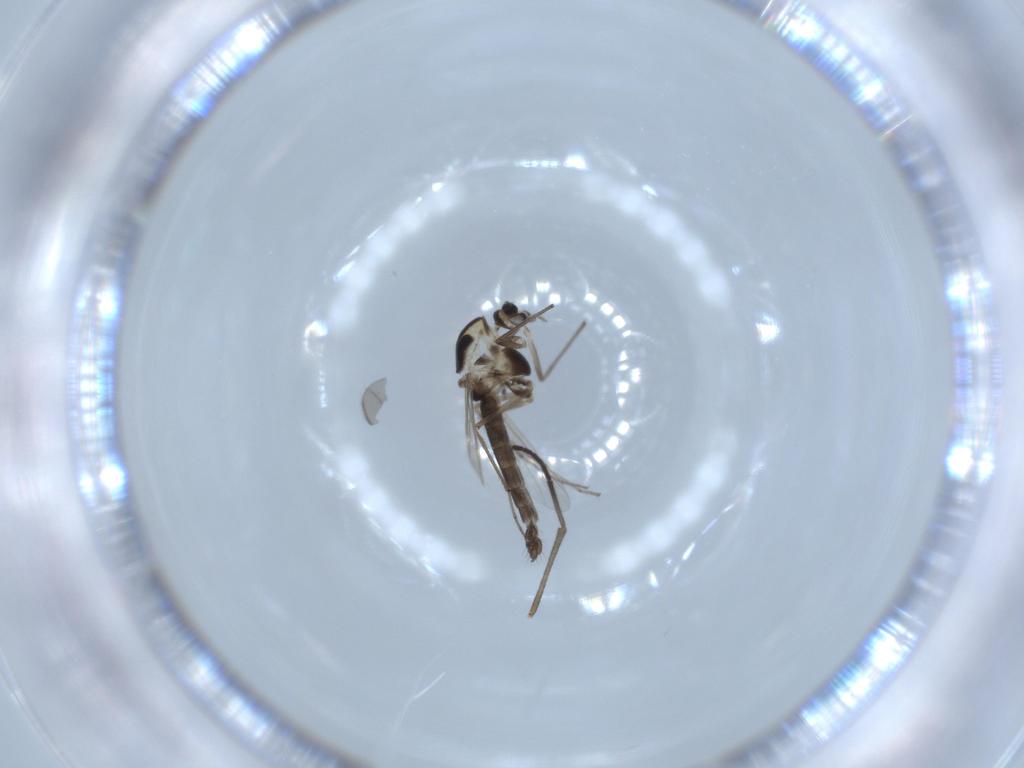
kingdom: Animalia
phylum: Arthropoda
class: Insecta
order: Diptera
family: Chironomidae
